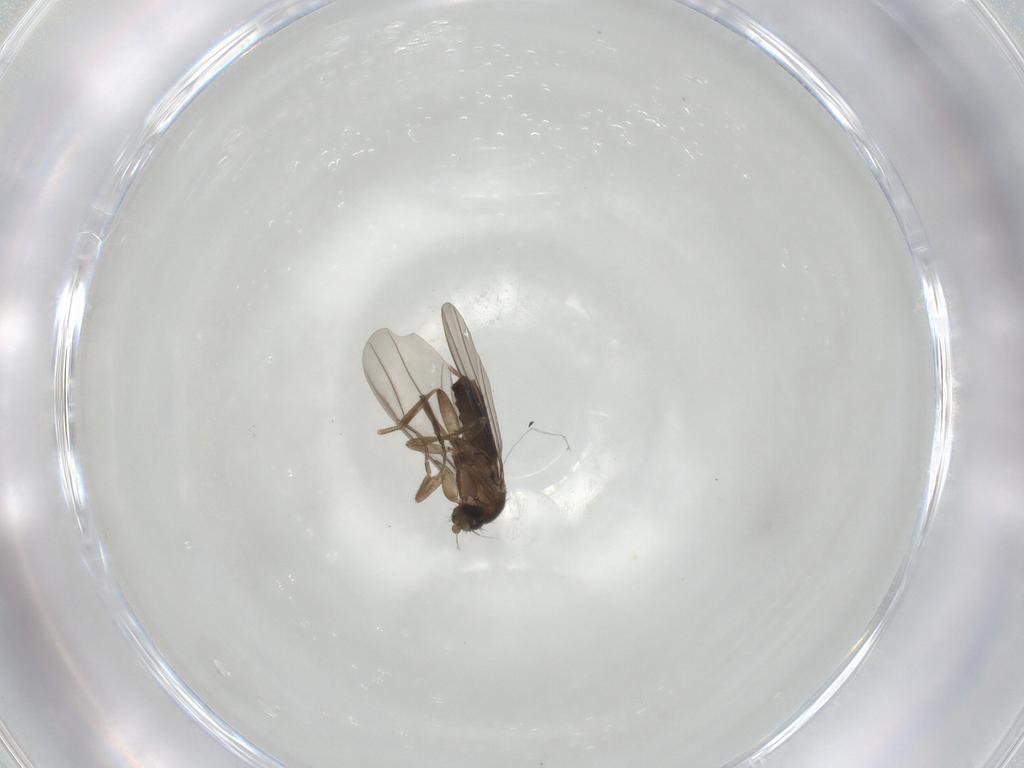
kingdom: Animalia
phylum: Arthropoda
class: Insecta
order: Diptera
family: Phoridae
